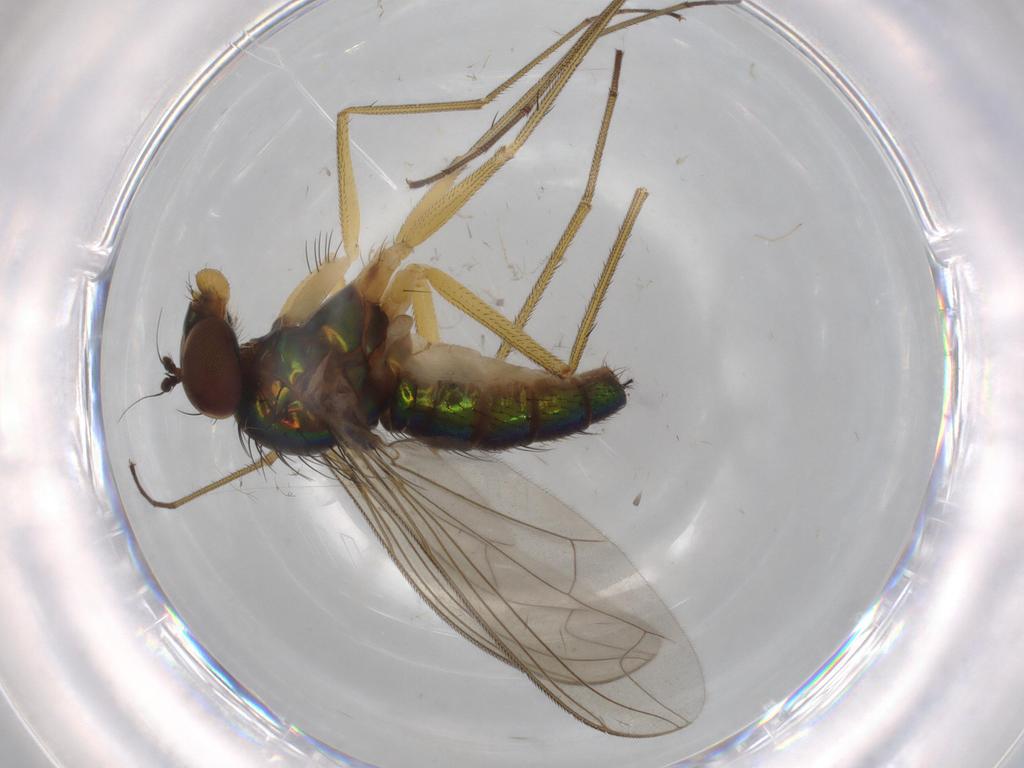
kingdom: Animalia
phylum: Arthropoda
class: Insecta
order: Diptera
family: Dolichopodidae
